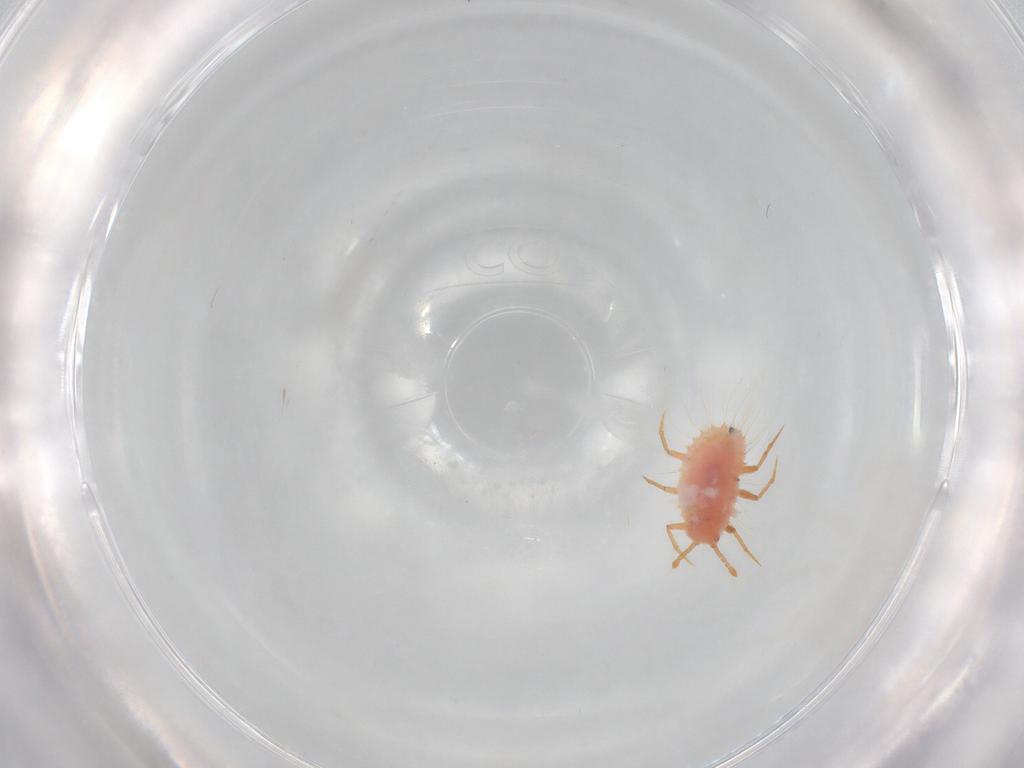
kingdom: Animalia
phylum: Arthropoda
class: Insecta
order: Hemiptera
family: Coccoidea_incertae_sedis
